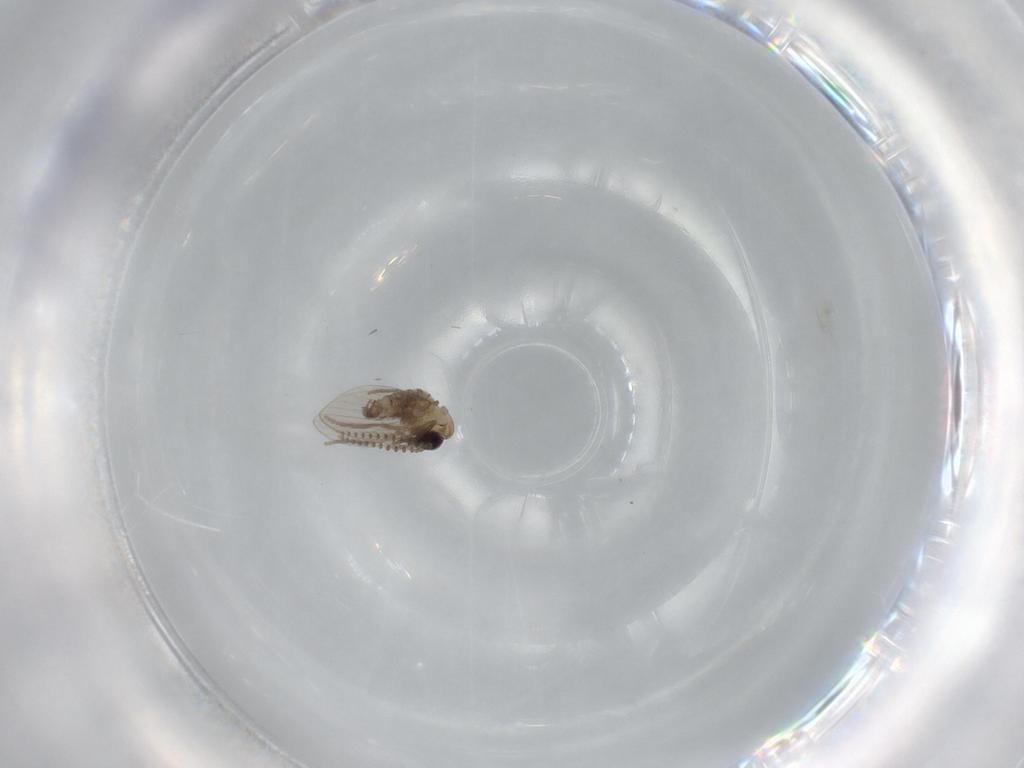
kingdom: Animalia
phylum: Arthropoda
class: Insecta
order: Diptera
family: Cecidomyiidae
